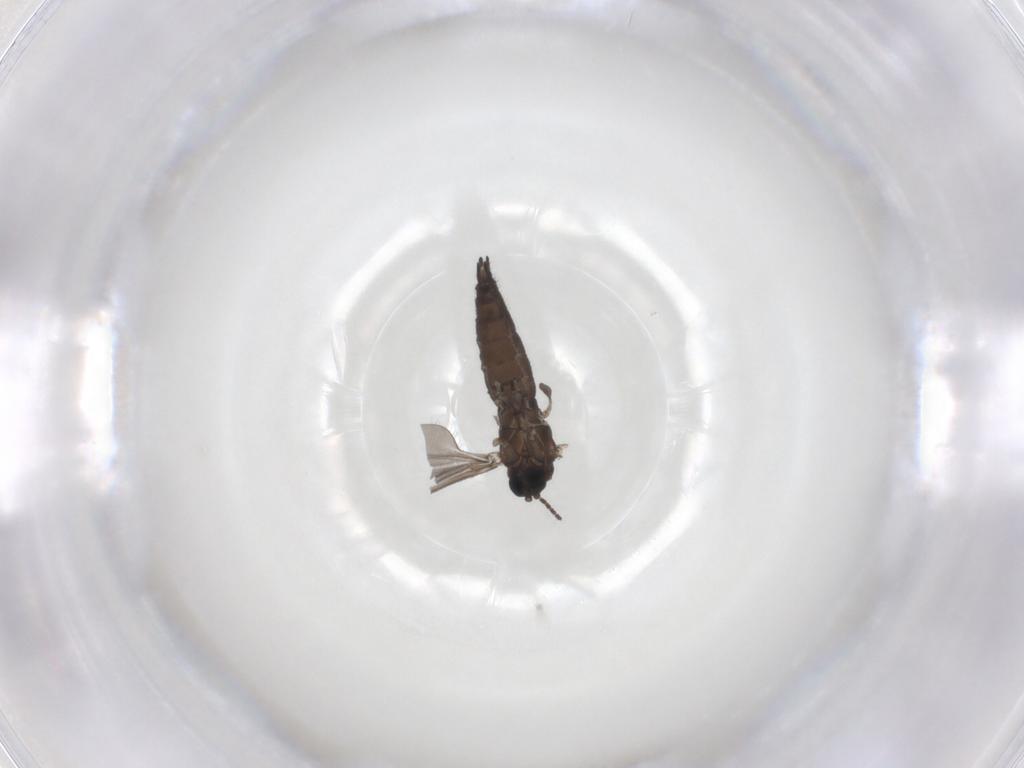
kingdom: Animalia
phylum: Arthropoda
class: Insecta
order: Diptera
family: Sciaridae
